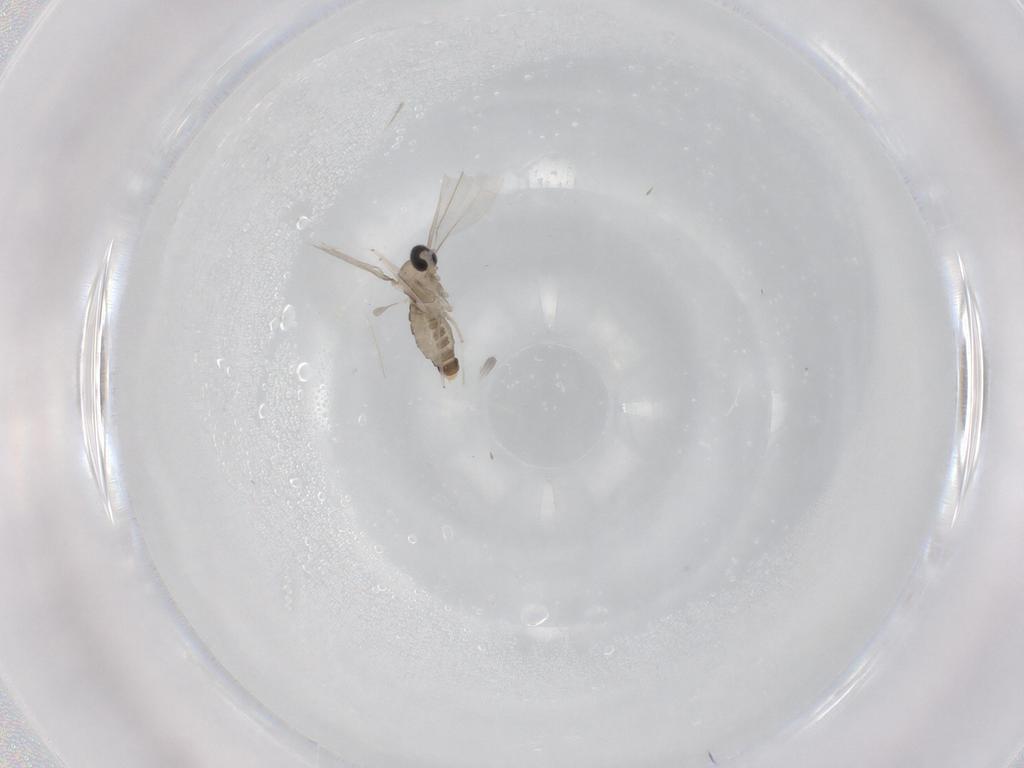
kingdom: Animalia
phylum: Arthropoda
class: Insecta
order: Diptera
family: Cecidomyiidae
